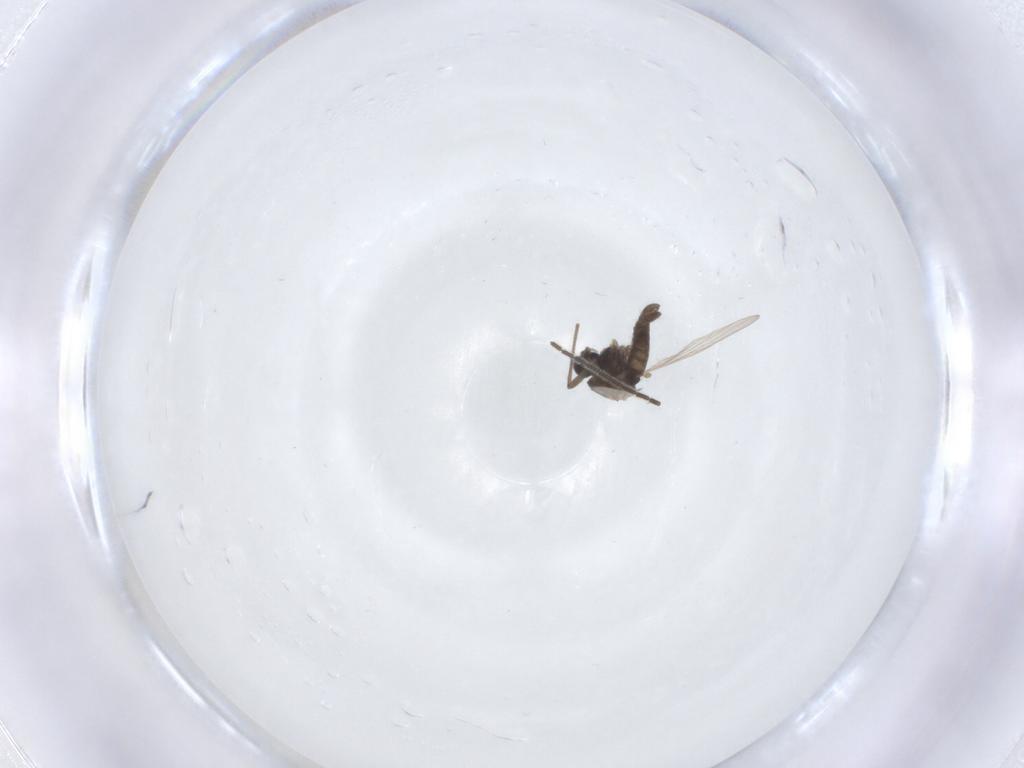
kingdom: Animalia
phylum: Arthropoda
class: Insecta
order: Diptera
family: Chironomidae
